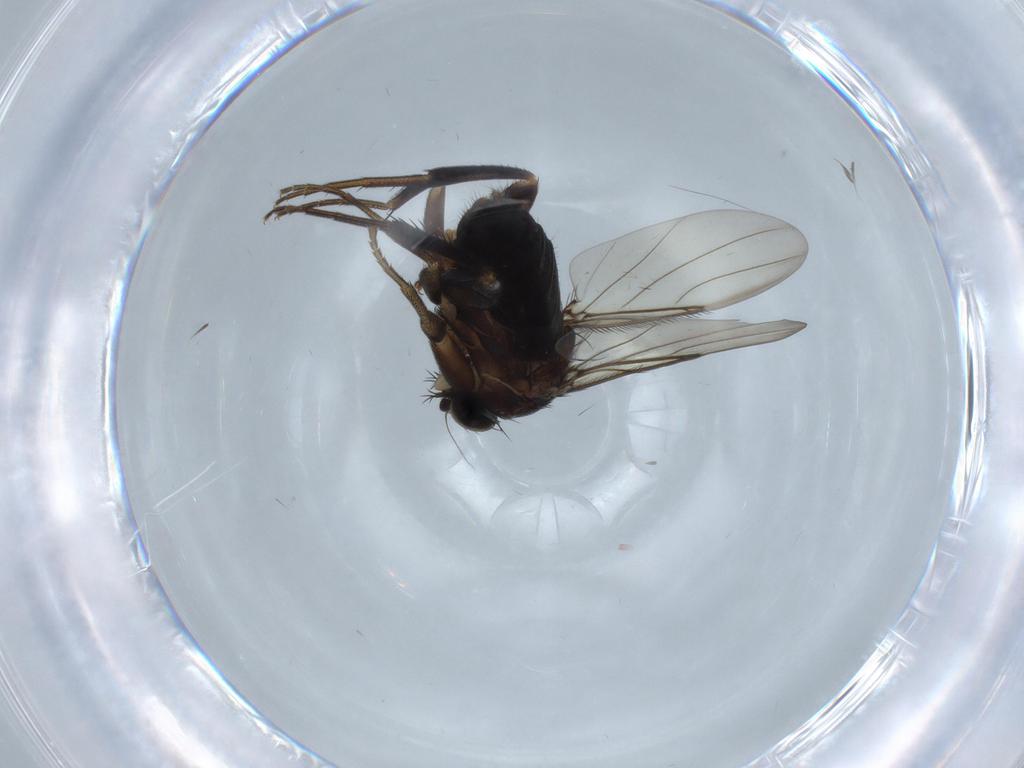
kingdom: Animalia
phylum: Arthropoda
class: Insecta
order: Diptera
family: Phoridae
